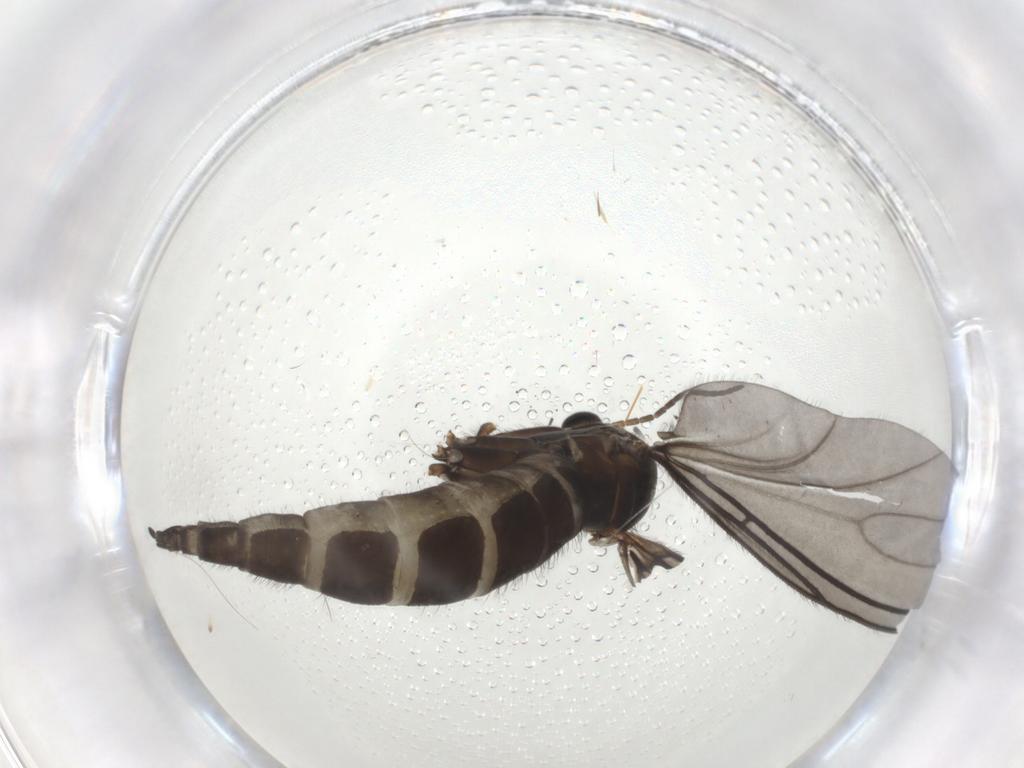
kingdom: Animalia
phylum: Arthropoda
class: Insecta
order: Diptera
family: Sciaridae
